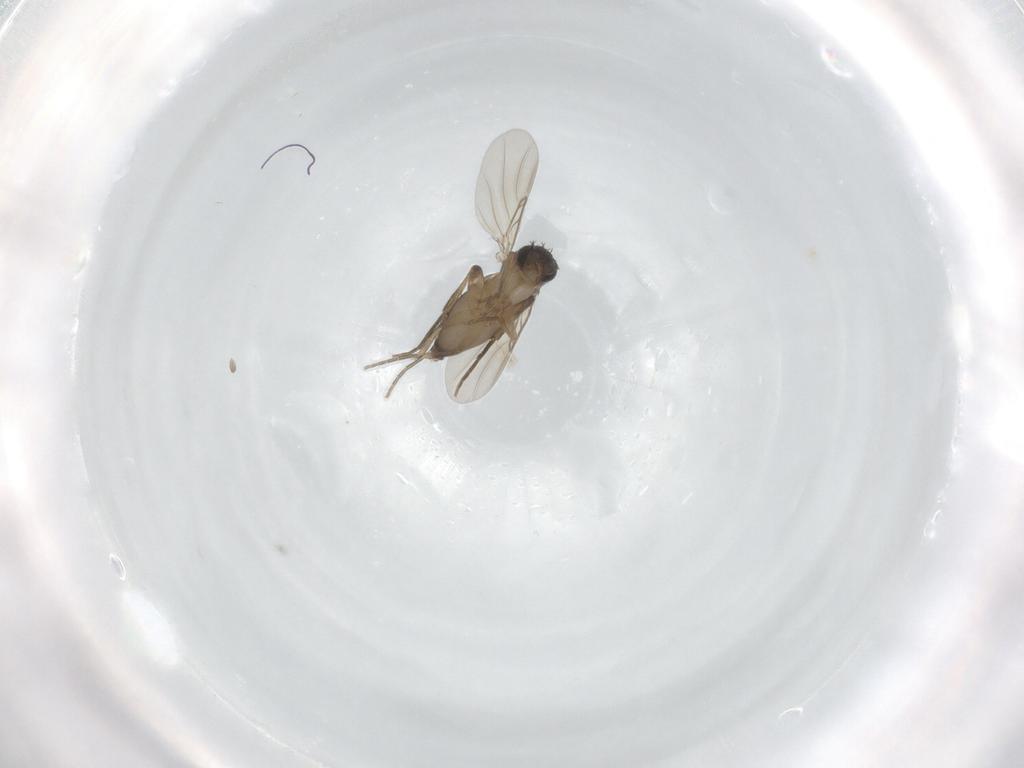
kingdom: Animalia
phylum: Arthropoda
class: Insecta
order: Diptera
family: Phoridae
